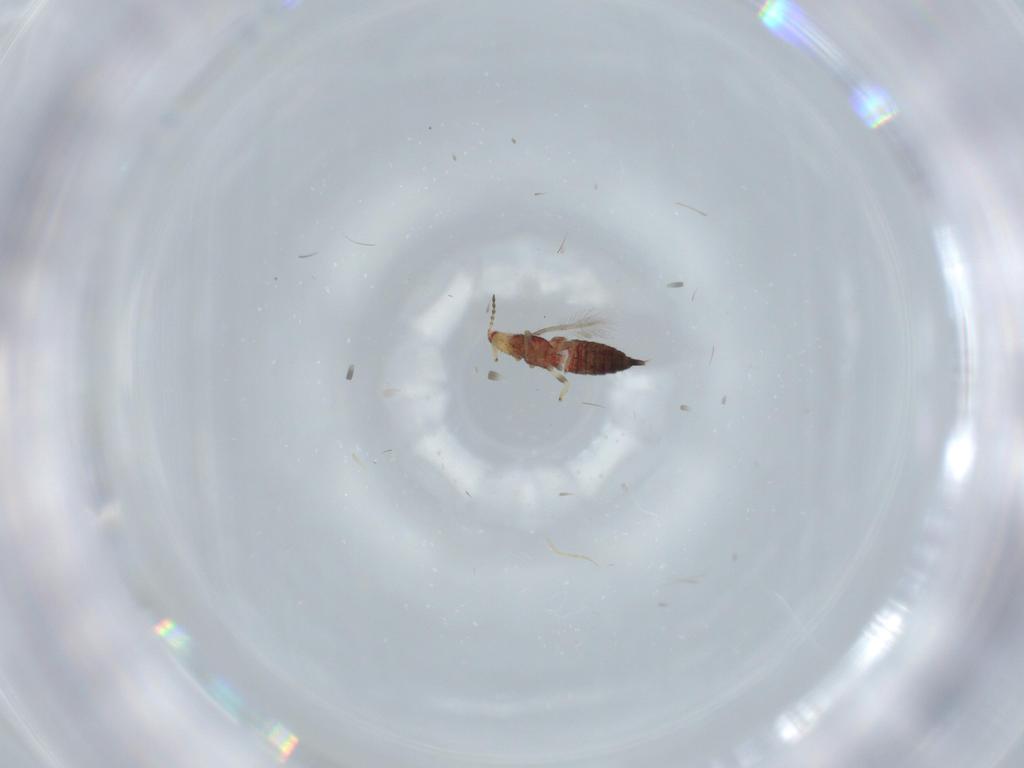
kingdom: Animalia
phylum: Arthropoda
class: Insecta
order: Thysanoptera
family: Phlaeothripidae
